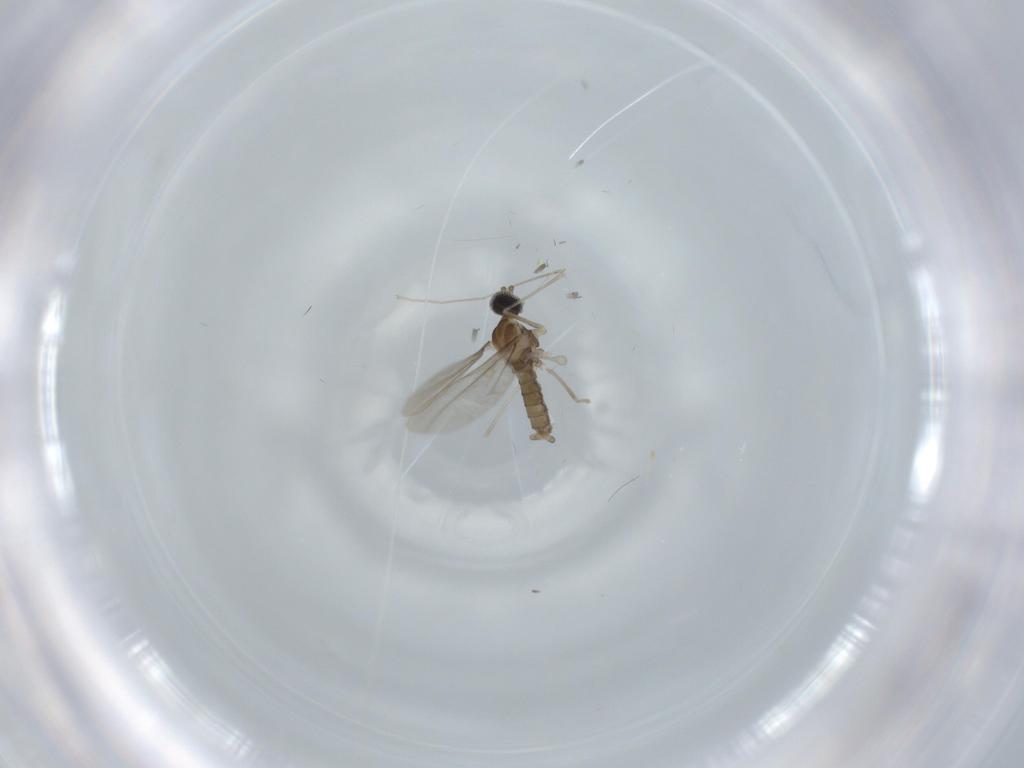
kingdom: Animalia
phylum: Arthropoda
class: Insecta
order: Diptera
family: Cecidomyiidae
